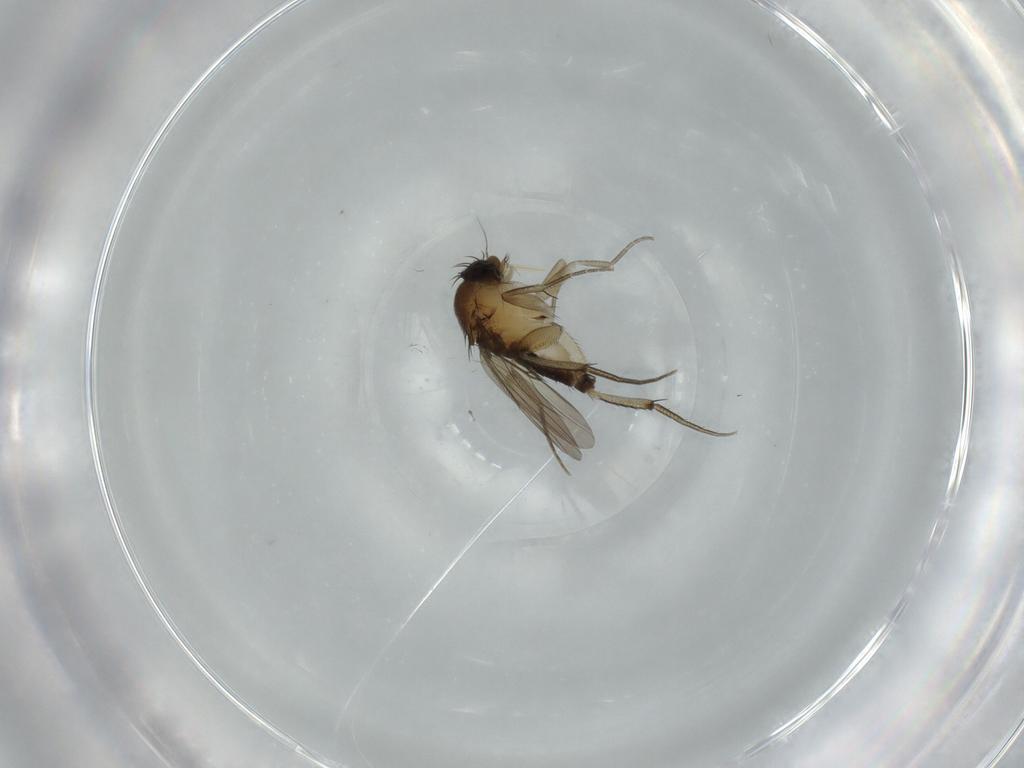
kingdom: Animalia
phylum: Arthropoda
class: Insecta
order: Diptera
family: Phoridae
